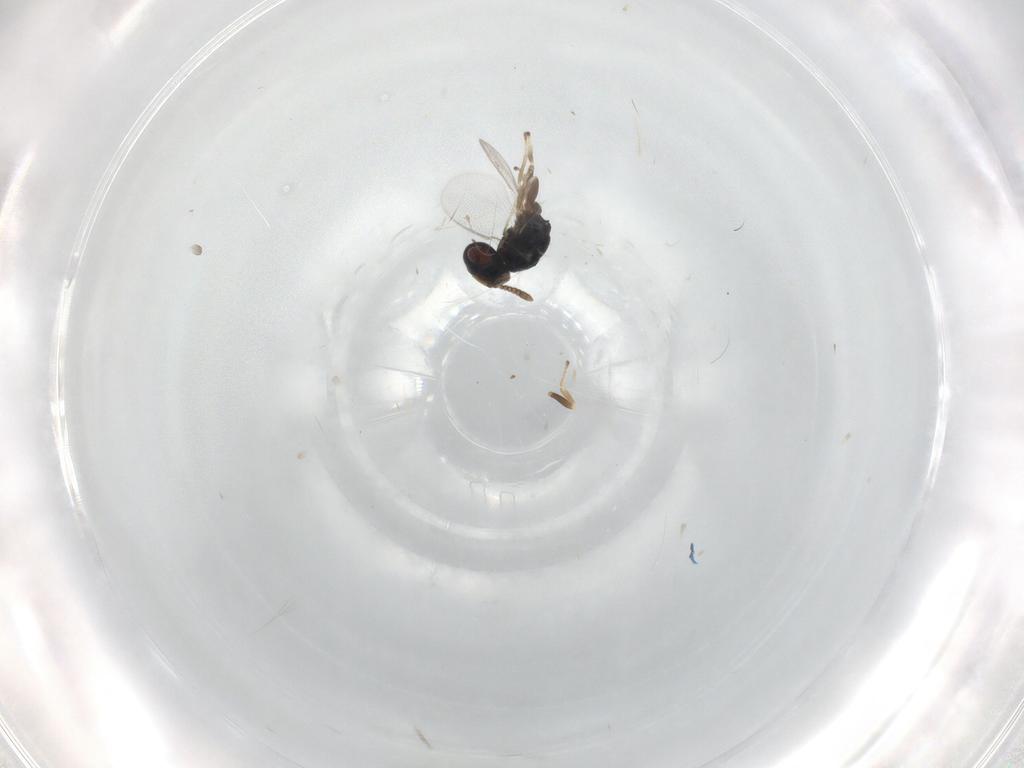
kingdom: Animalia
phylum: Arthropoda
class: Insecta
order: Hymenoptera
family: Pteromalidae
